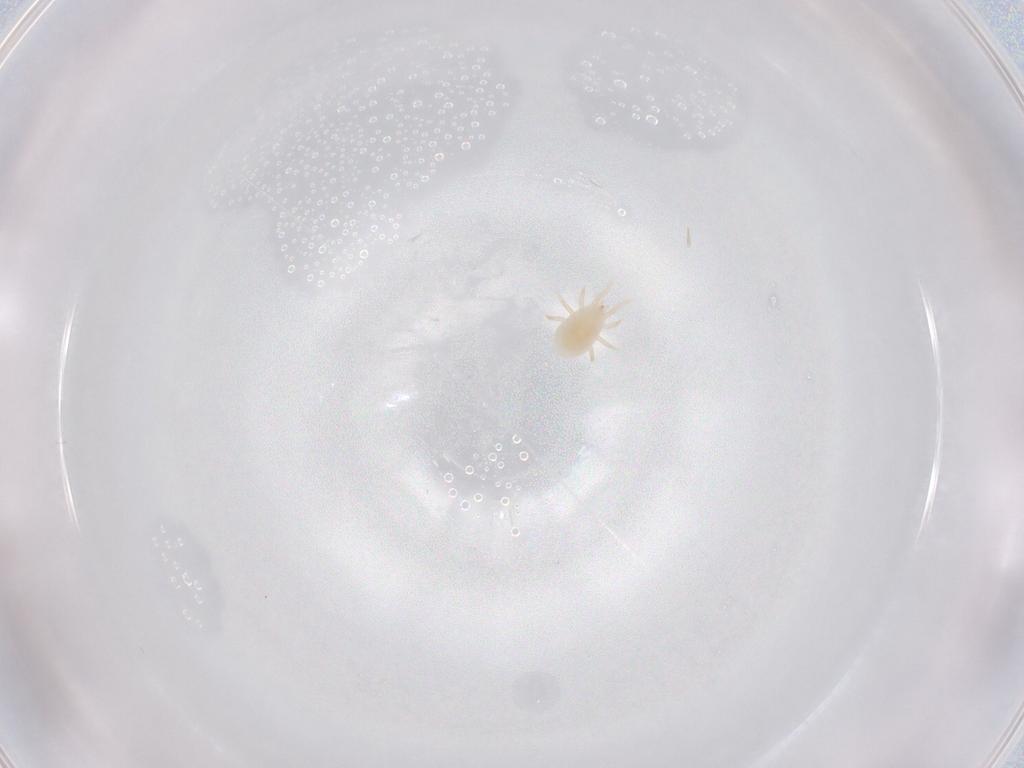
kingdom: Animalia
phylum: Arthropoda
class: Arachnida
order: Mesostigmata
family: Laelapidae
